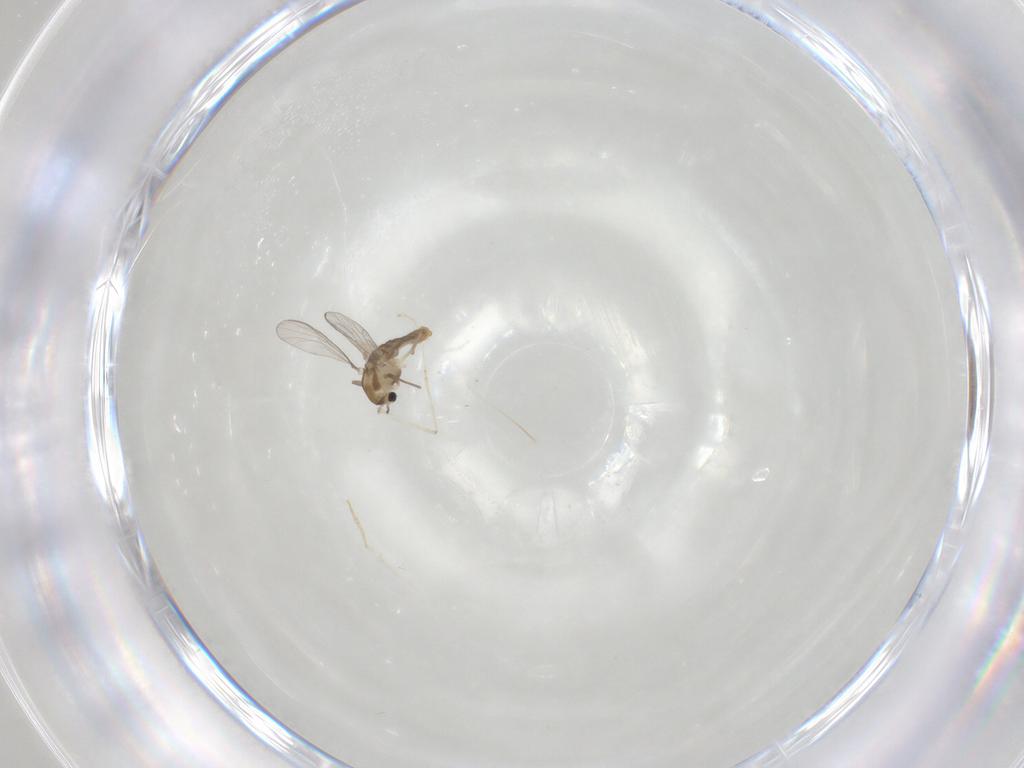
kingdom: Animalia
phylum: Arthropoda
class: Insecta
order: Diptera
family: Chironomidae
